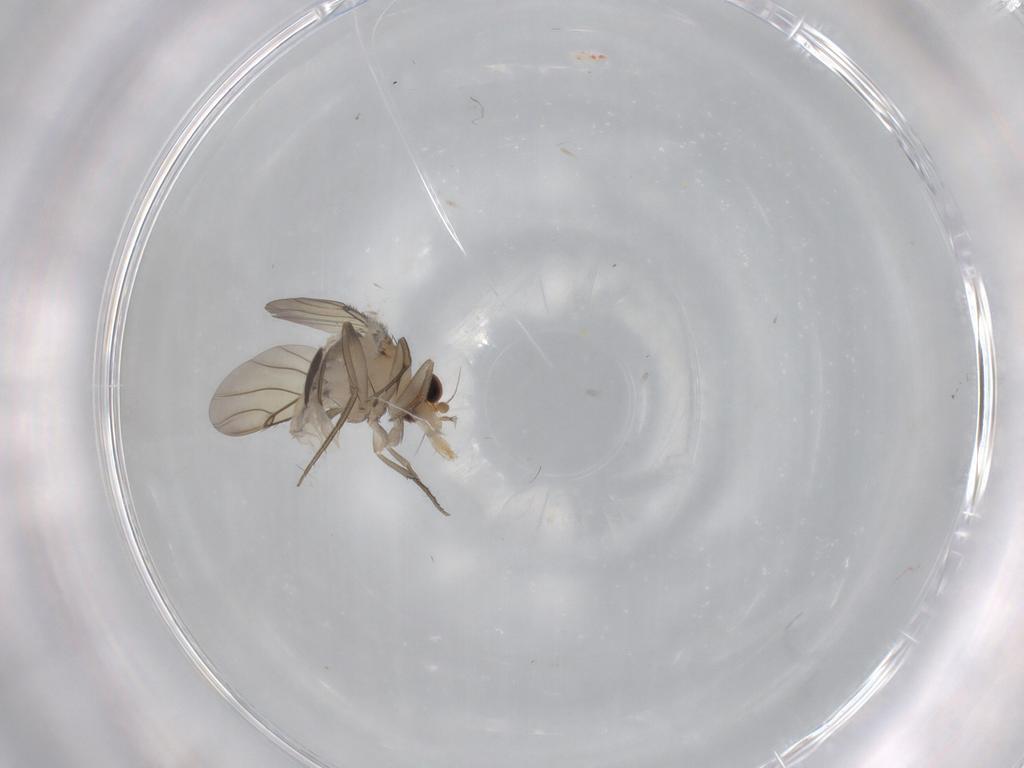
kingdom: Animalia
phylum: Arthropoda
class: Insecta
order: Diptera
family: Cecidomyiidae
